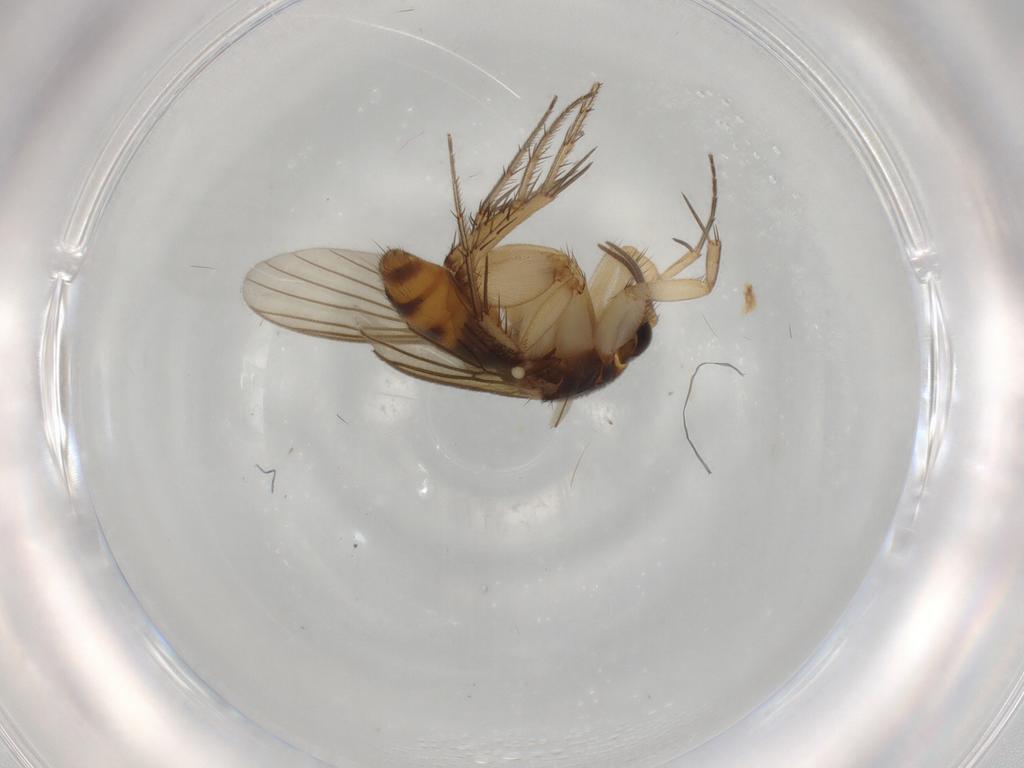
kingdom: Animalia
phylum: Arthropoda
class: Insecta
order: Diptera
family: Mycetophilidae
